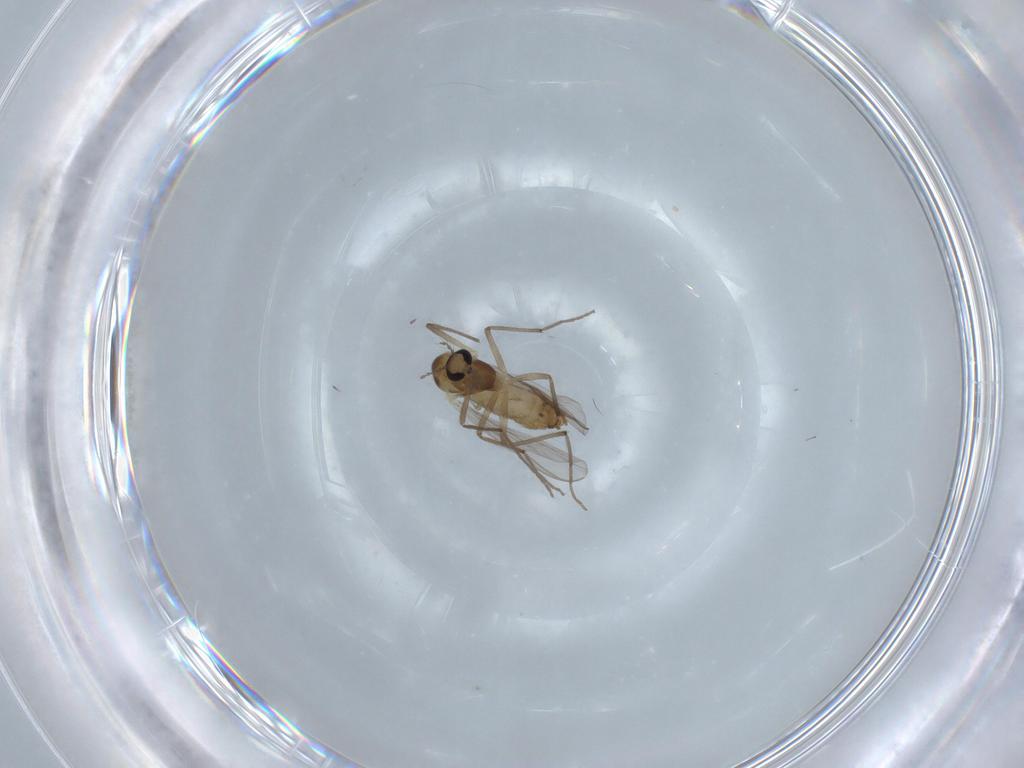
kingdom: Animalia
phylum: Arthropoda
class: Insecta
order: Diptera
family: Chironomidae
